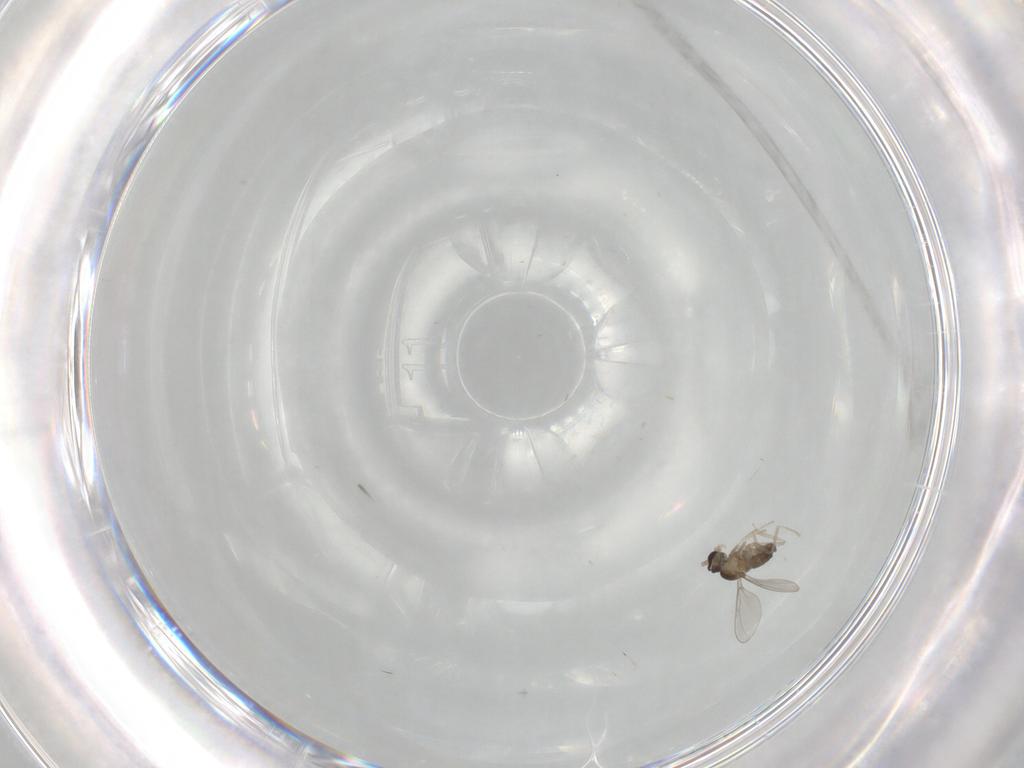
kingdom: Animalia
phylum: Arthropoda
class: Insecta
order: Diptera
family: Cecidomyiidae
